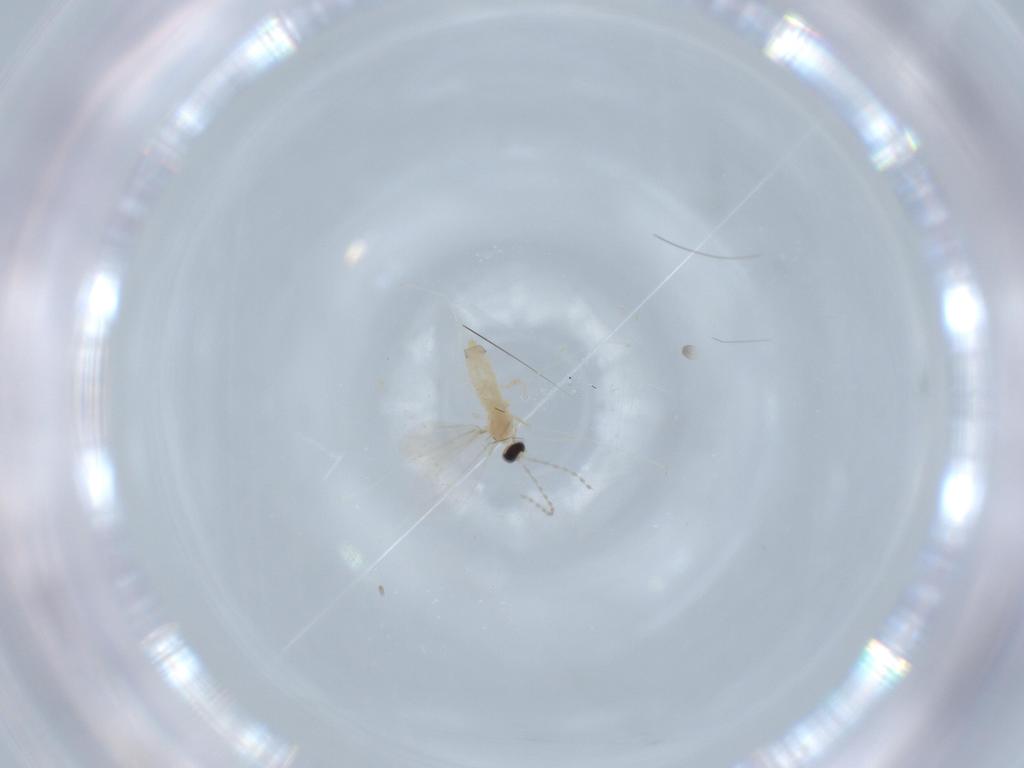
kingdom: Animalia
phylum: Arthropoda
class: Insecta
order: Diptera
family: Cecidomyiidae
